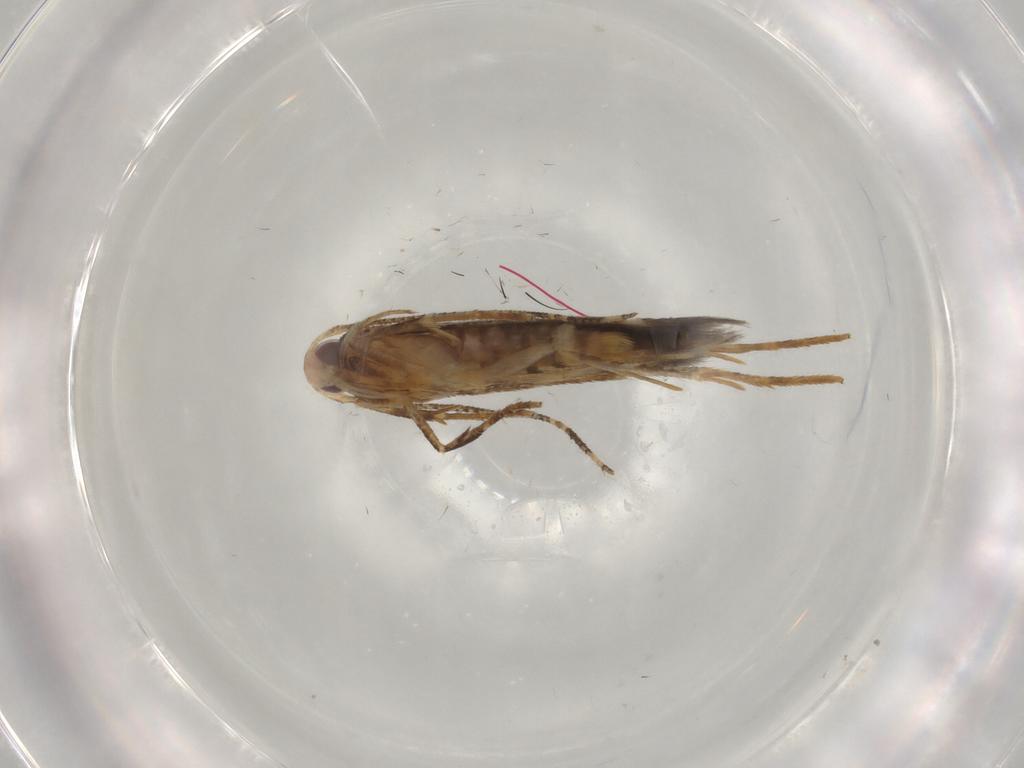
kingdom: Animalia
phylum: Arthropoda
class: Insecta
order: Lepidoptera
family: Cosmopterigidae
